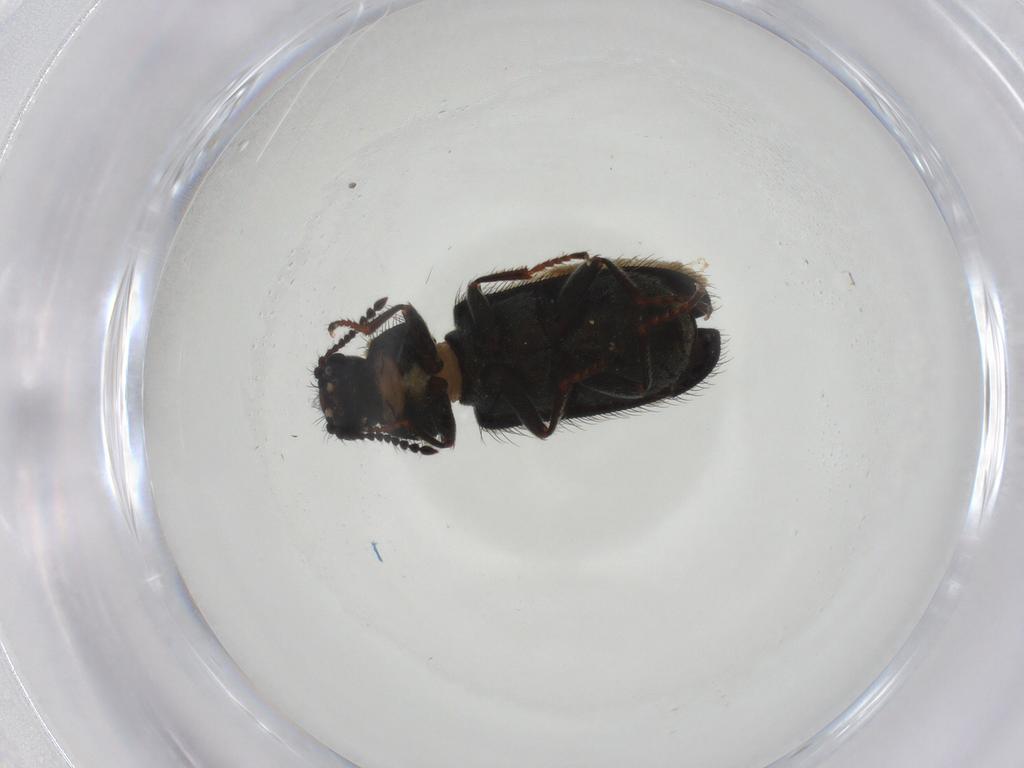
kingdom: Animalia
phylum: Arthropoda
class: Insecta
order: Coleoptera
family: Melyridae
